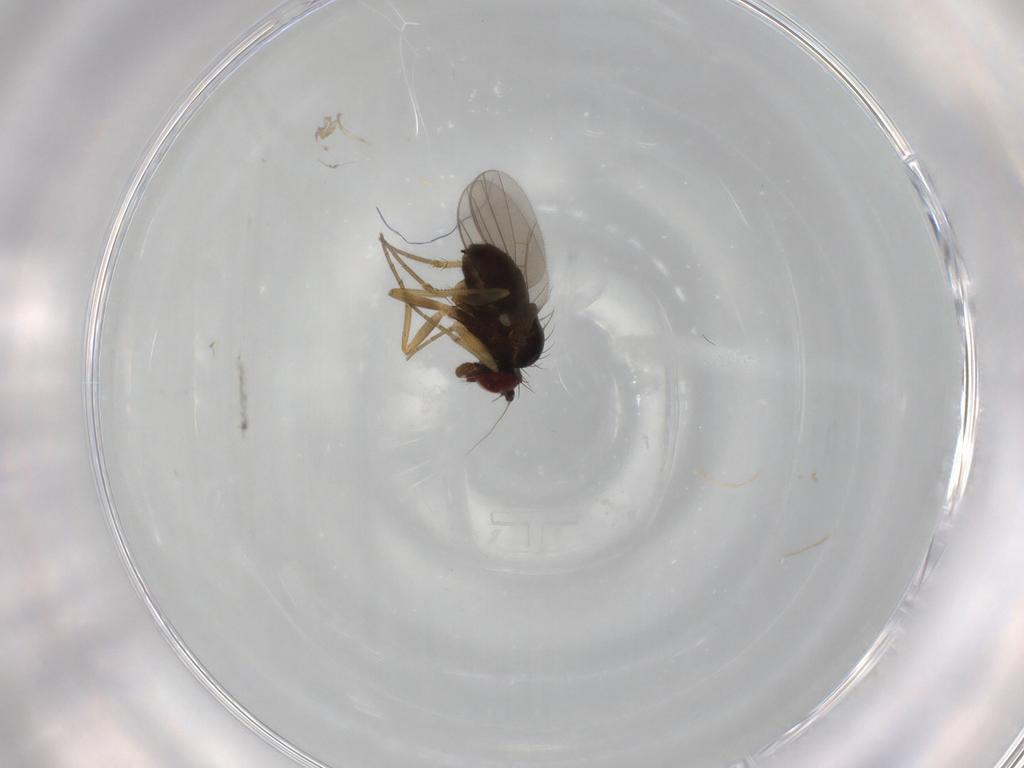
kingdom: Animalia
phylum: Arthropoda
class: Insecta
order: Diptera
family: Dolichopodidae
